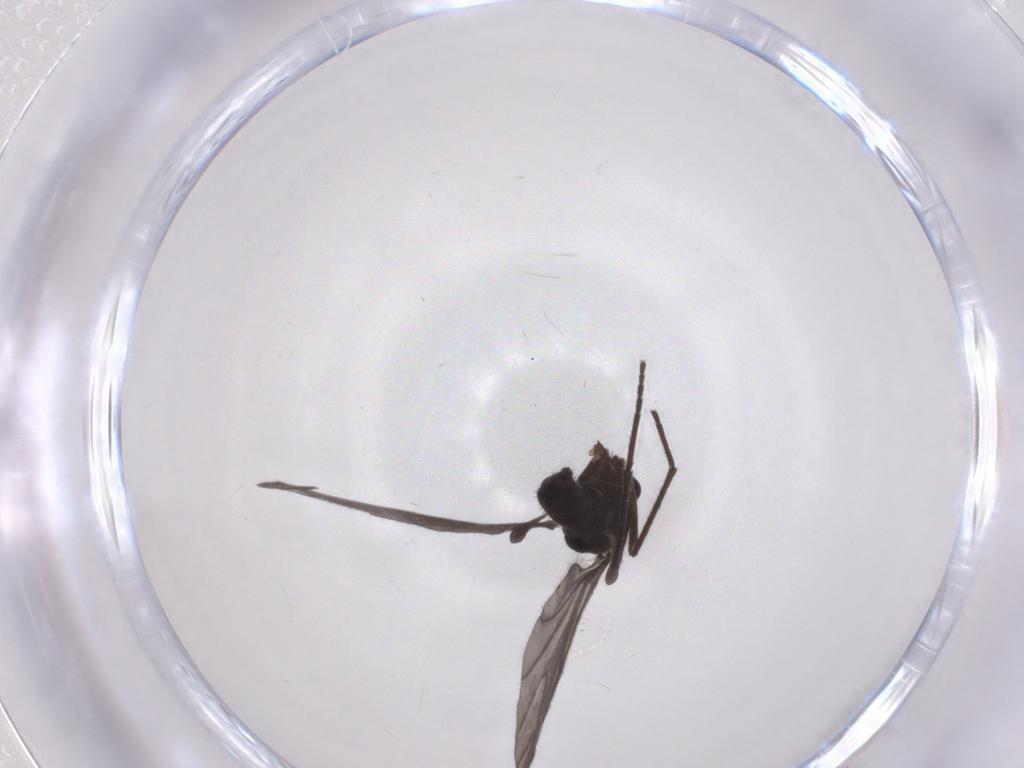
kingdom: Animalia
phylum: Arthropoda
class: Insecta
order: Diptera
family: Sciaridae
